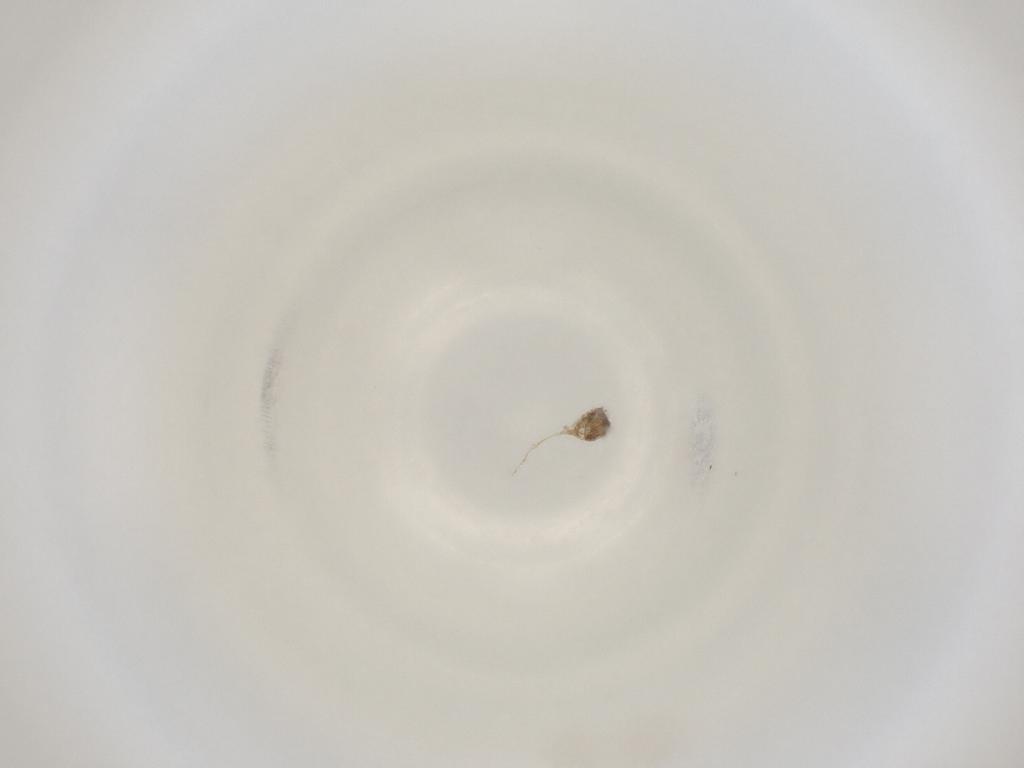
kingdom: Animalia
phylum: Arthropoda
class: Insecta
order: Diptera
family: Cecidomyiidae
